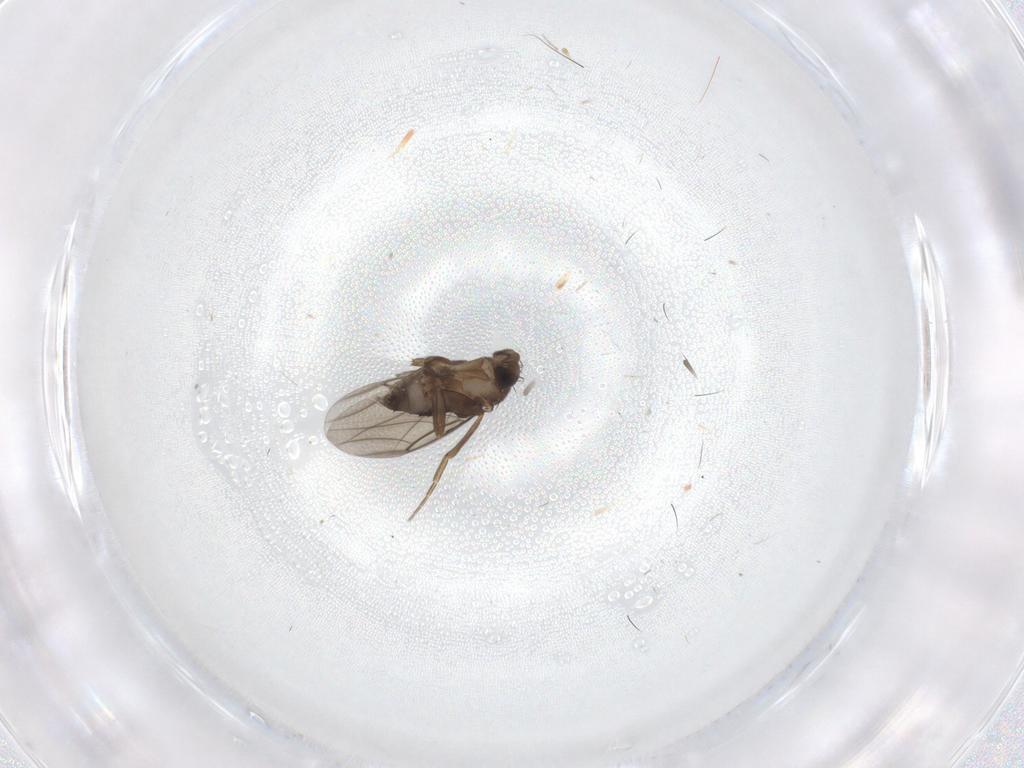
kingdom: Animalia
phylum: Arthropoda
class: Insecta
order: Diptera
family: Phoridae
